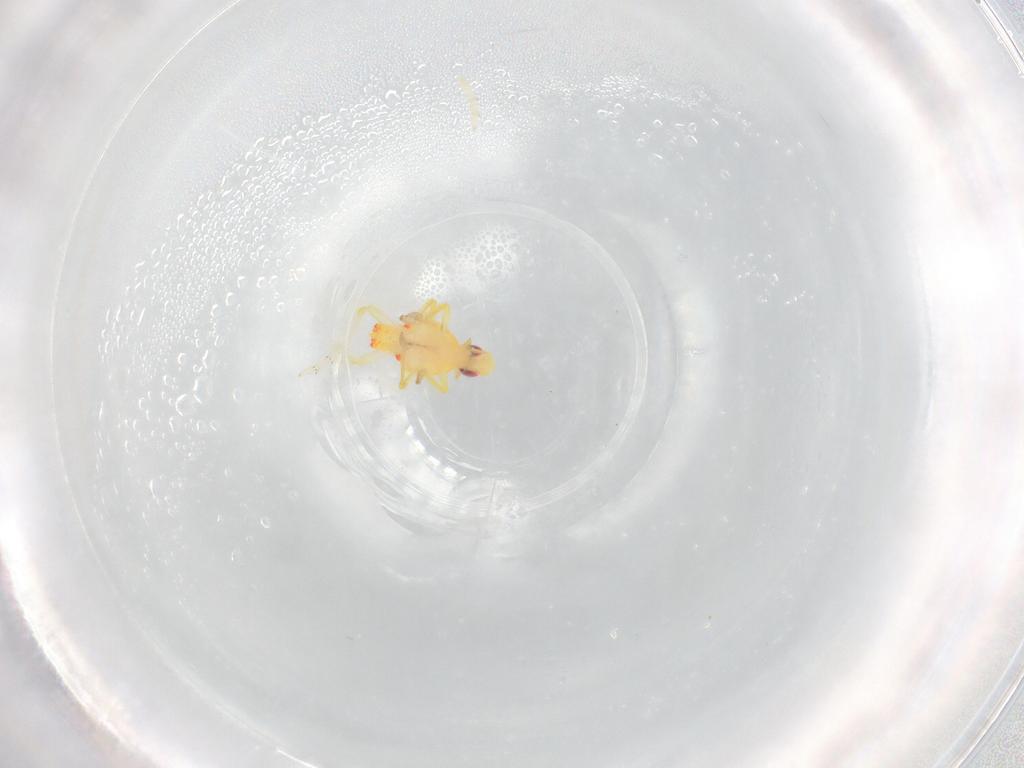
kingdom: Animalia
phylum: Arthropoda
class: Insecta
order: Hemiptera
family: Tropiduchidae
